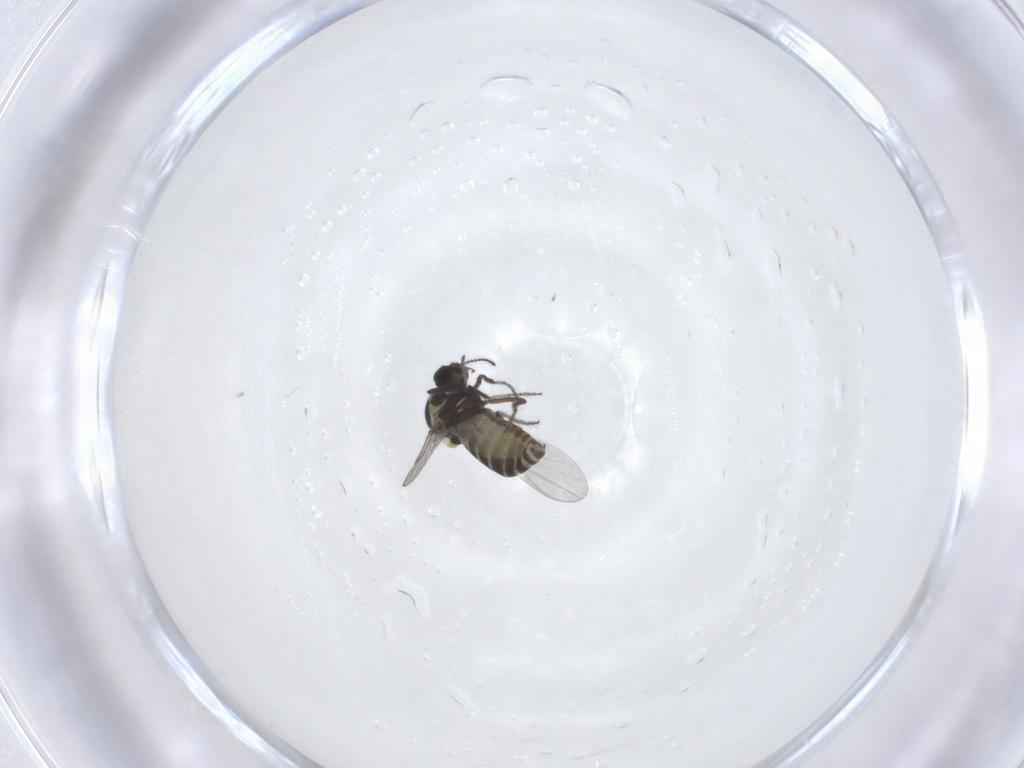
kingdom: Animalia
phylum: Arthropoda
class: Insecta
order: Diptera
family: Ceratopogonidae
